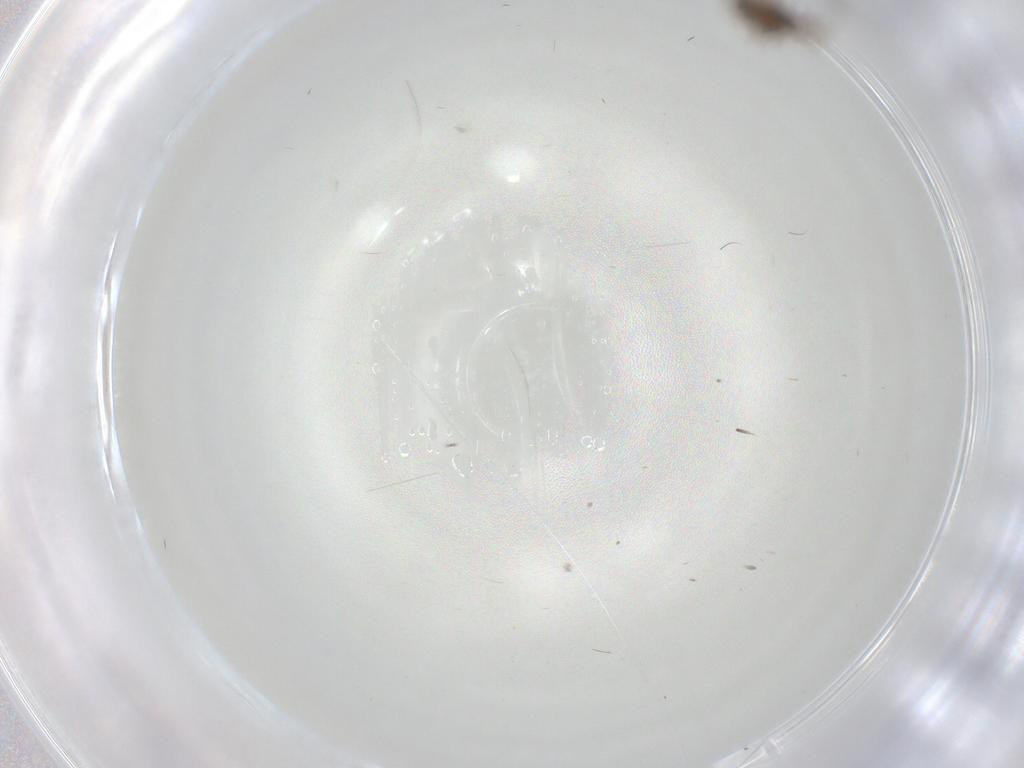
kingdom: Animalia
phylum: Arthropoda
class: Insecta
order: Diptera
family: Chironomidae
